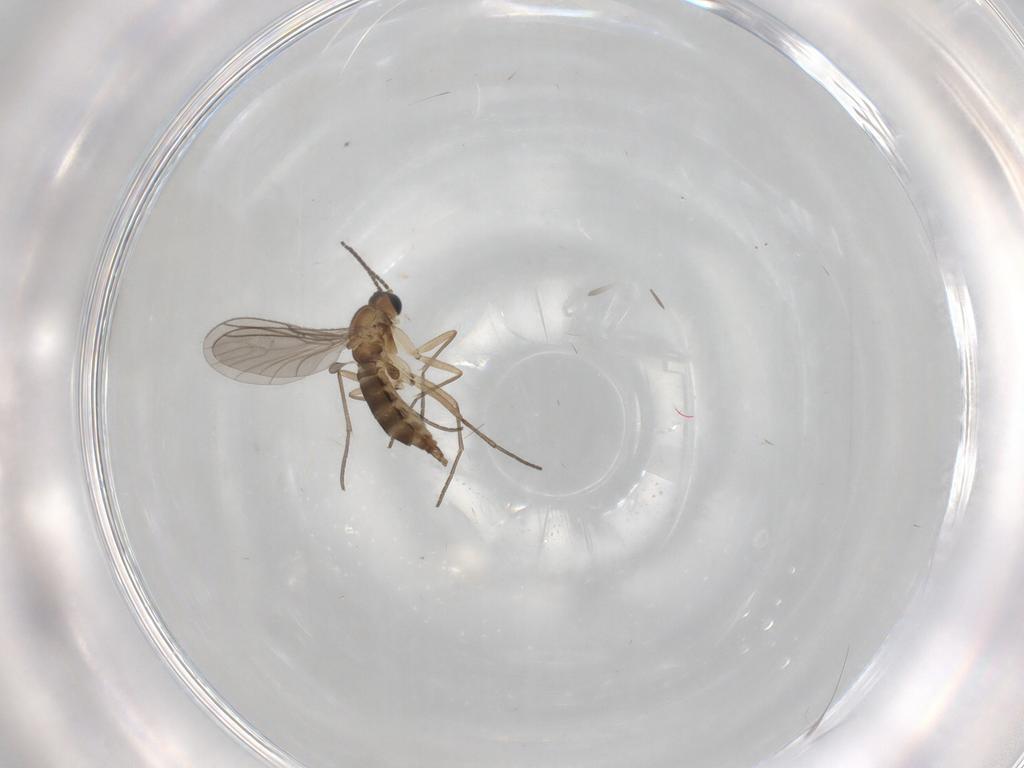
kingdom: Animalia
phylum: Arthropoda
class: Insecta
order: Diptera
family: Sciaridae
